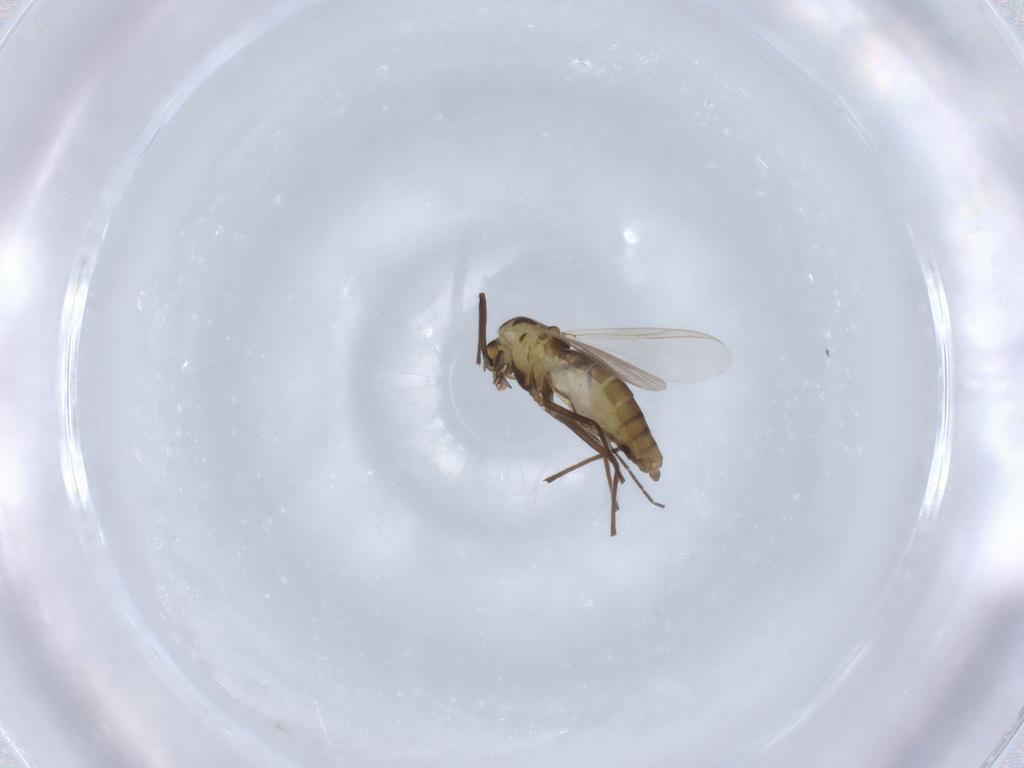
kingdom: Animalia
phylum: Arthropoda
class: Insecta
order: Diptera
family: Chironomidae
